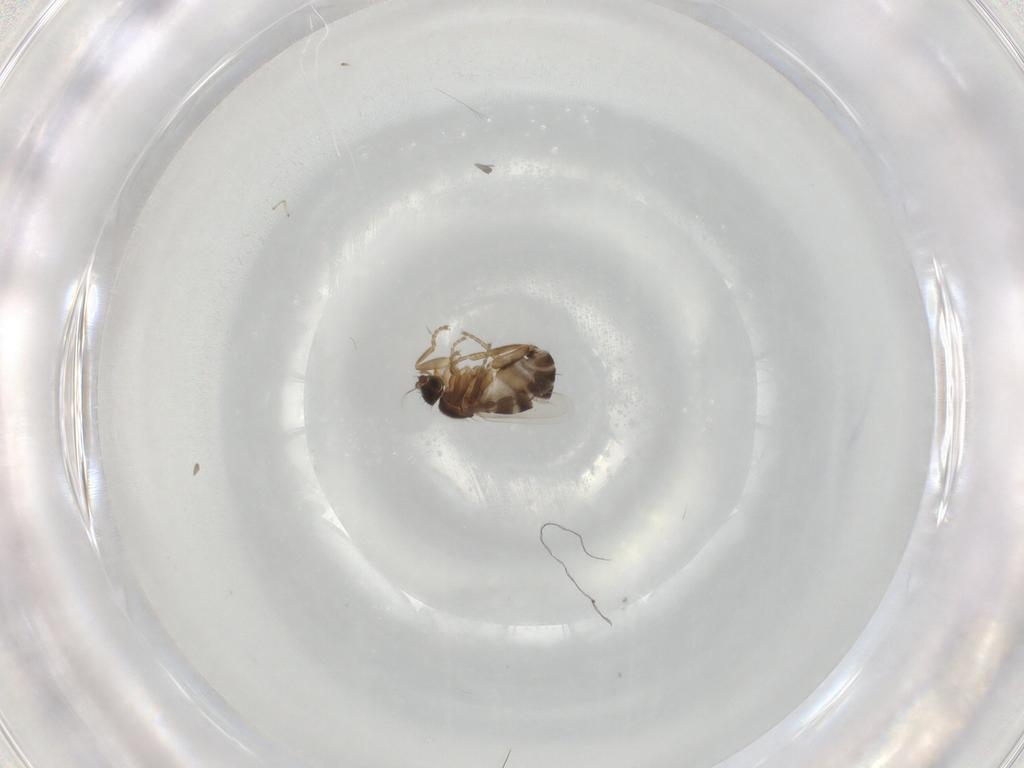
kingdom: Animalia
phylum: Arthropoda
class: Insecta
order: Diptera
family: Phoridae
